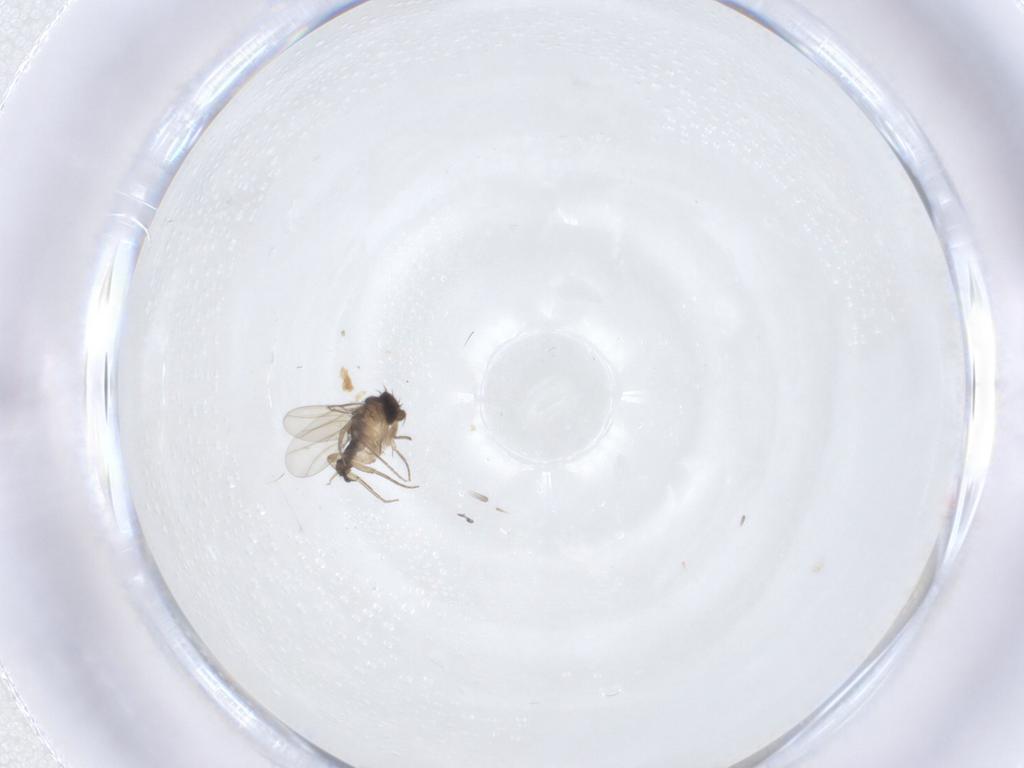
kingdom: Animalia
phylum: Arthropoda
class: Insecta
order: Diptera
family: Phoridae
